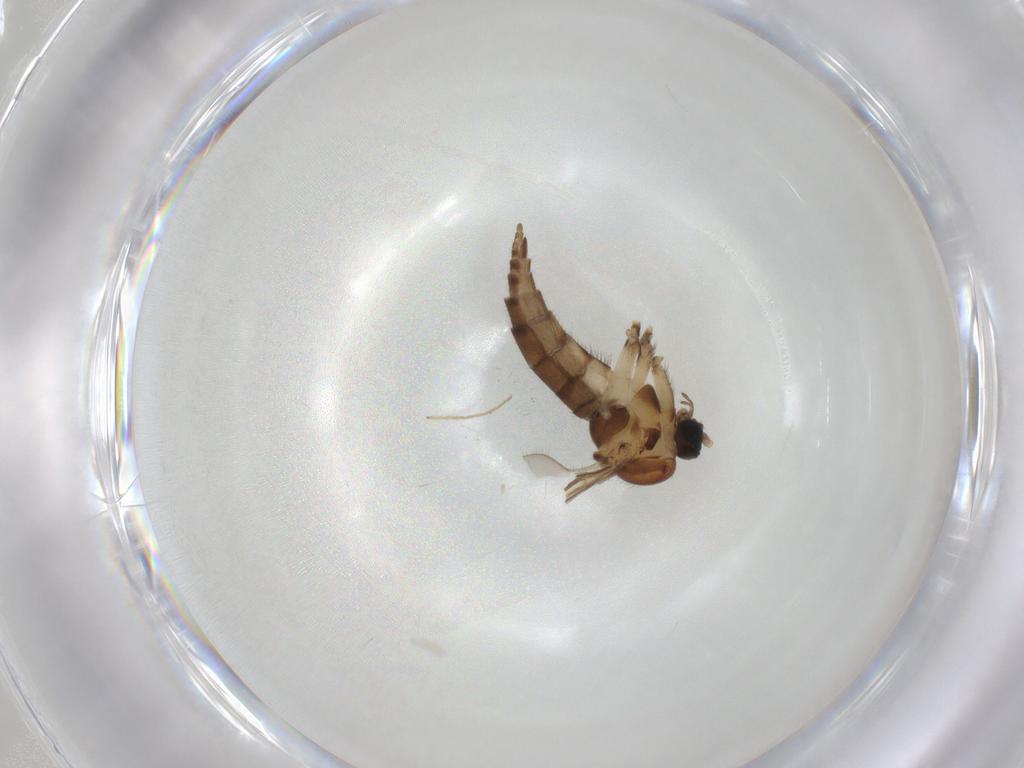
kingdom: Animalia
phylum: Arthropoda
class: Insecta
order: Diptera
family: Sciaridae
